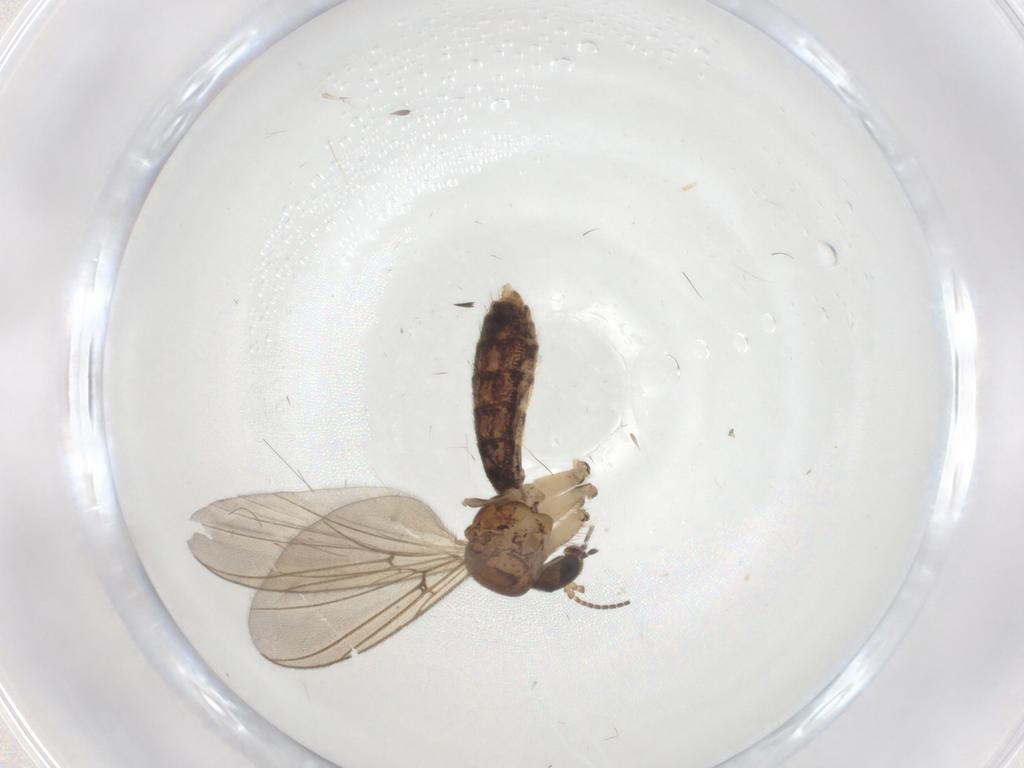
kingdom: Animalia
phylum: Arthropoda
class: Insecta
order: Diptera
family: Mycetophilidae
